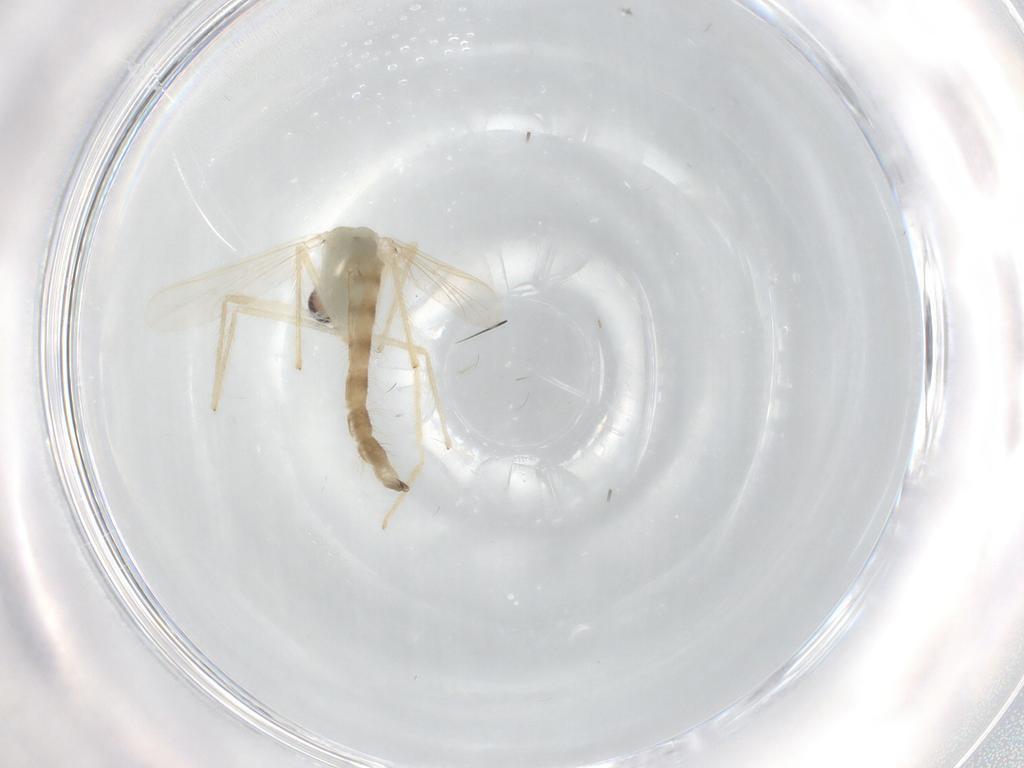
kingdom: Animalia
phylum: Arthropoda
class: Insecta
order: Diptera
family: Chironomidae
